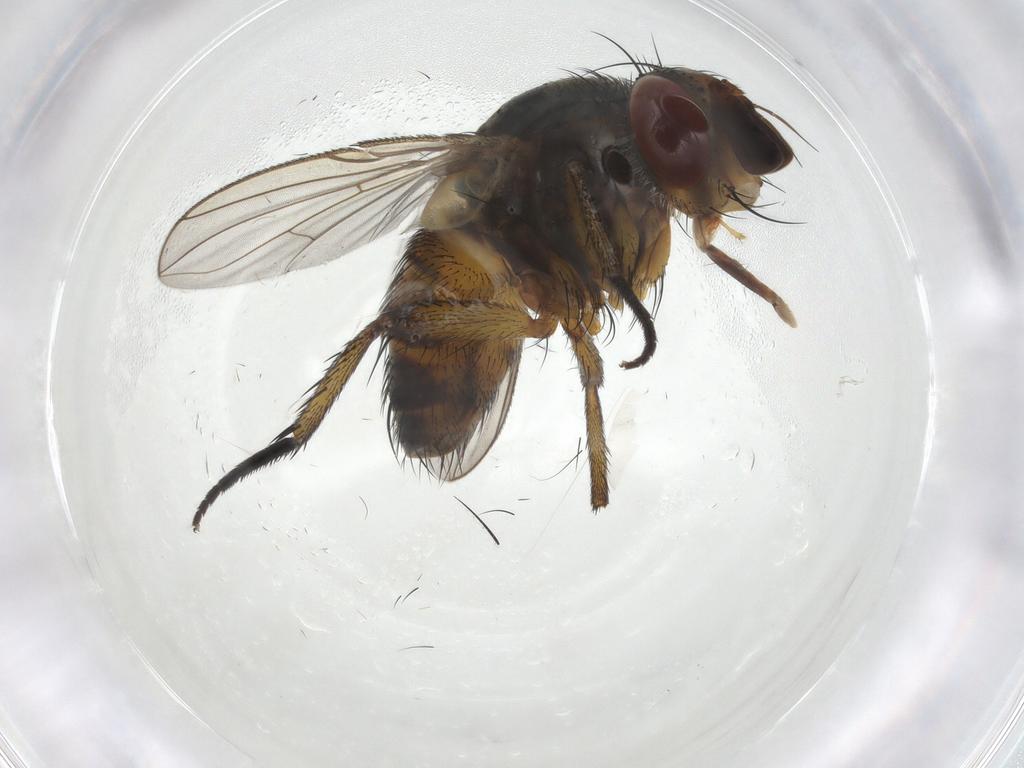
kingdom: Animalia
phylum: Arthropoda
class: Insecta
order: Diptera
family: Tachinidae
